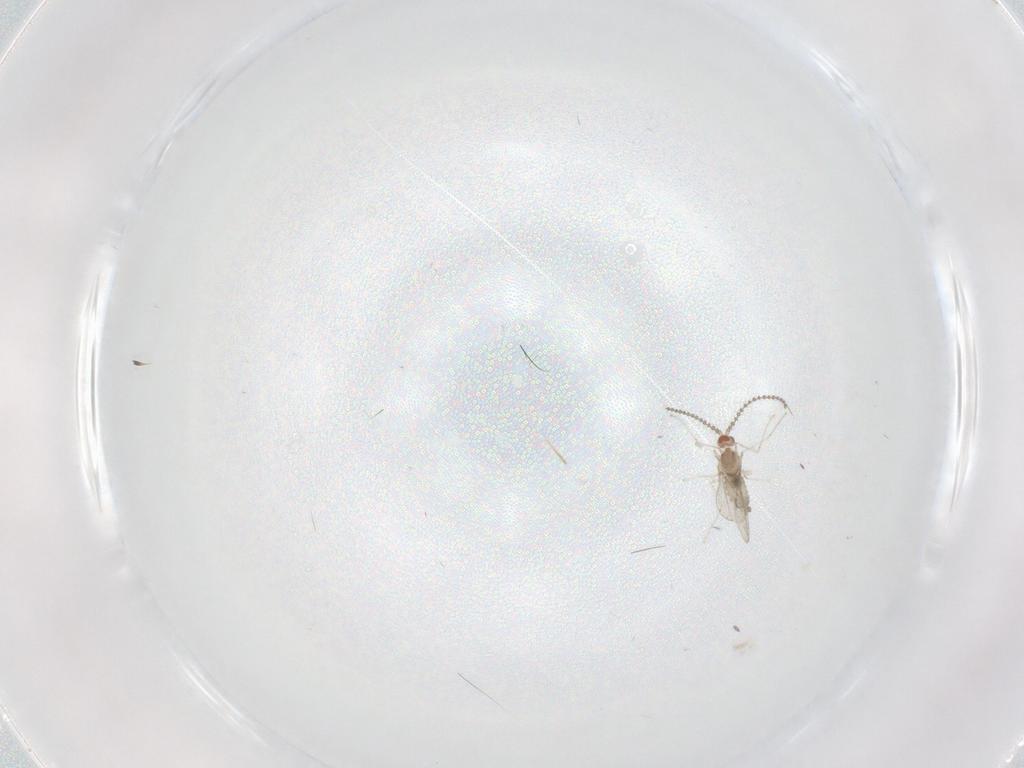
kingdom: Animalia
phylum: Arthropoda
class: Insecta
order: Diptera
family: Cecidomyiidae
